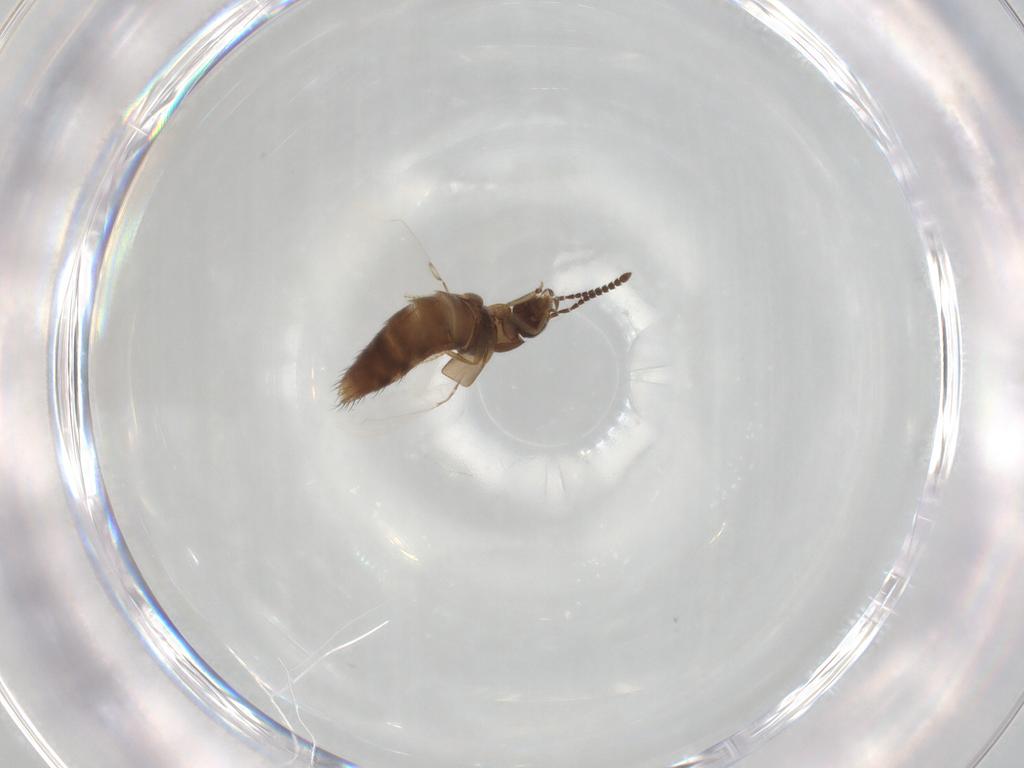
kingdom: Animalia
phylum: Arthropoda
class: Insecta
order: Coleoptera
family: Staphylinidae
